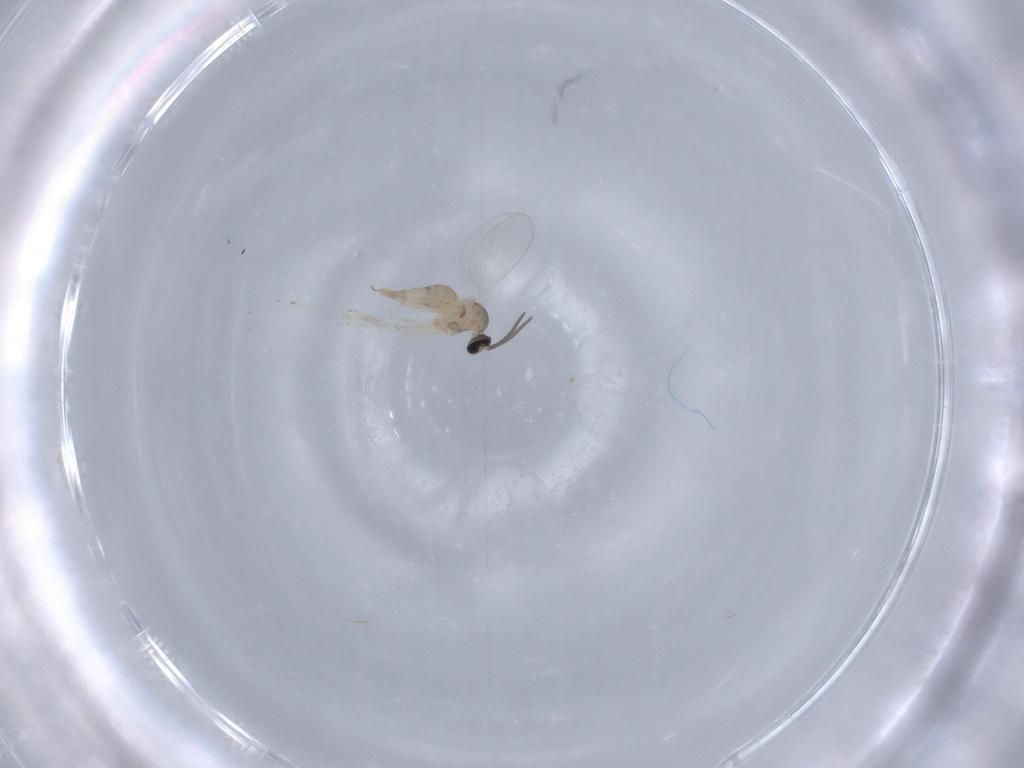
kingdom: Animalia
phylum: Arthropoda
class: Insecta
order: Diptera
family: Cecidomyiidae
